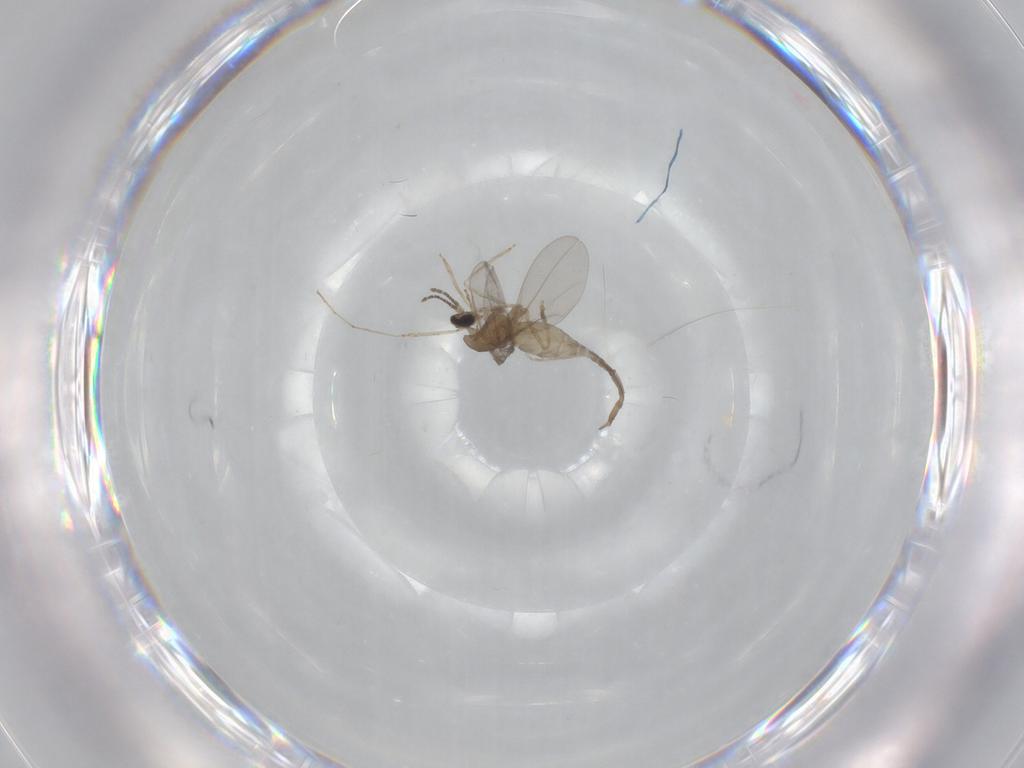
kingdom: Animalia
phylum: Arthropoda
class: Insecta
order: Diptera
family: Cecidomyiidae
